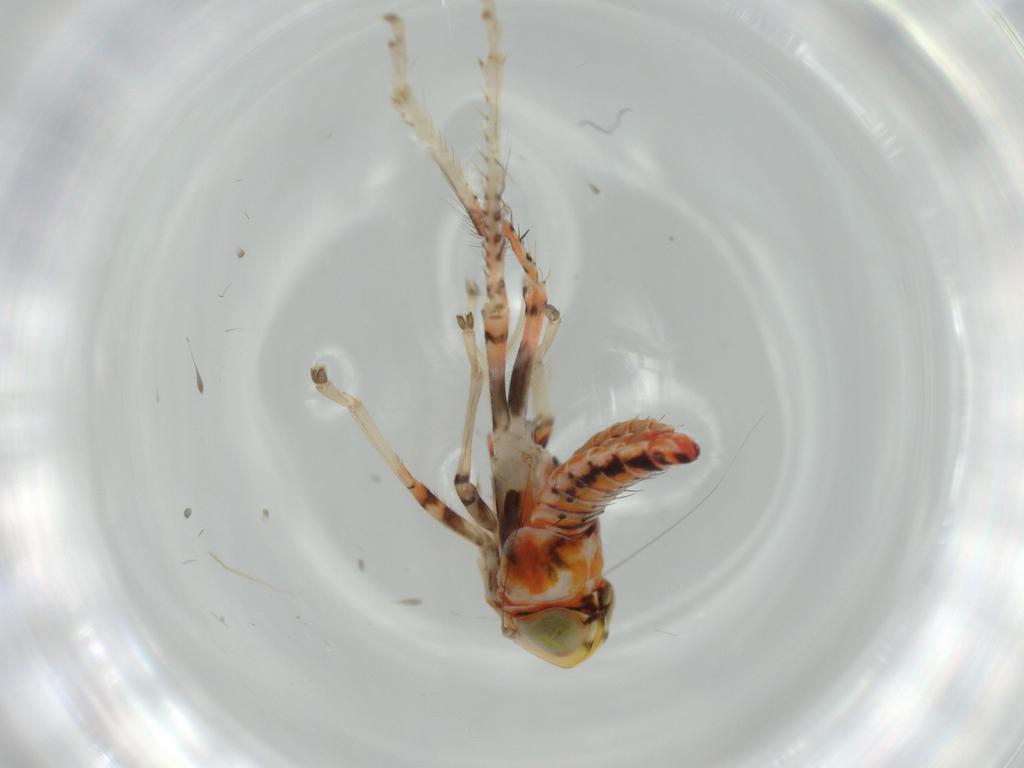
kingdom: Animalia
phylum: Arthropoda
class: Insecta
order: Hemiptera
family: Cicadellidae
